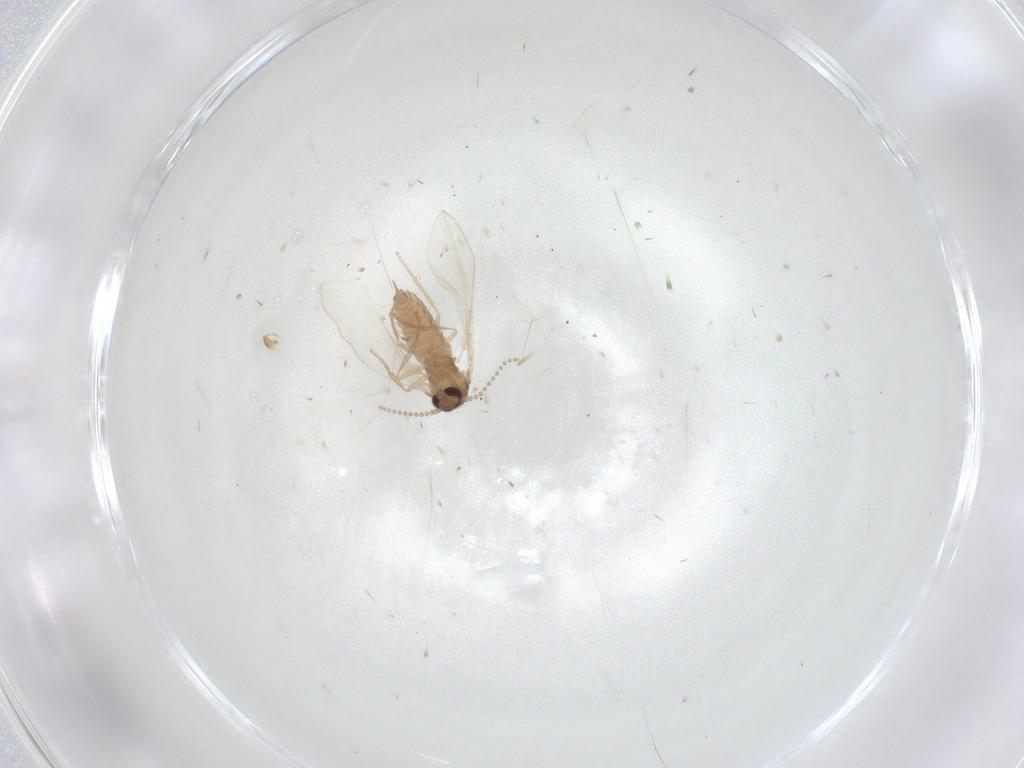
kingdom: Animalia
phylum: Arthropoda
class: Insecta
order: Diptera
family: Psychodidae
